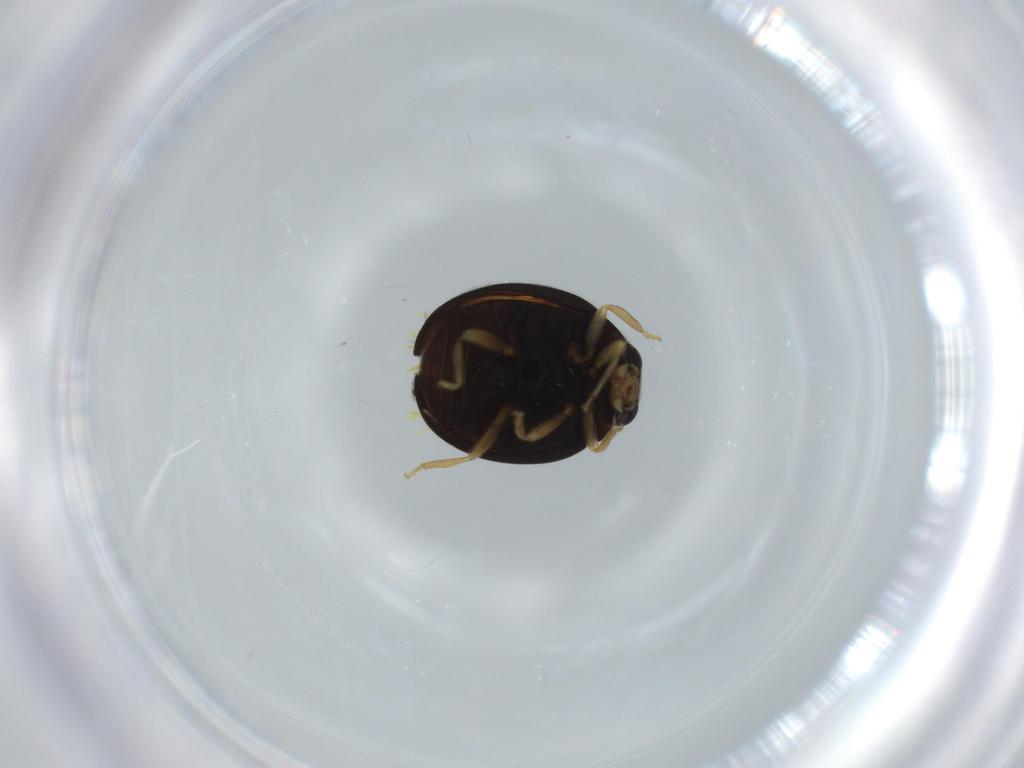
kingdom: Animalia
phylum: Arthropoda
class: Insecta
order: Coleoptera
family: Coccinellidae
